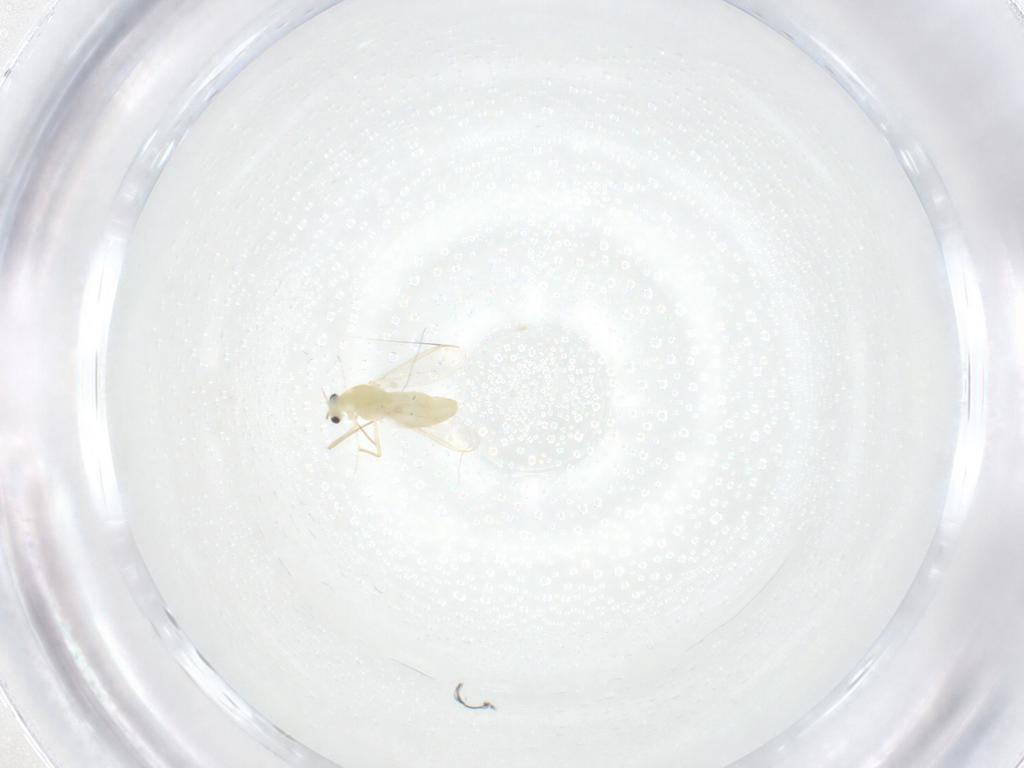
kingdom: Animalia
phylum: Arthropoda
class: Insecta
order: Diptera
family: Chironomidae
